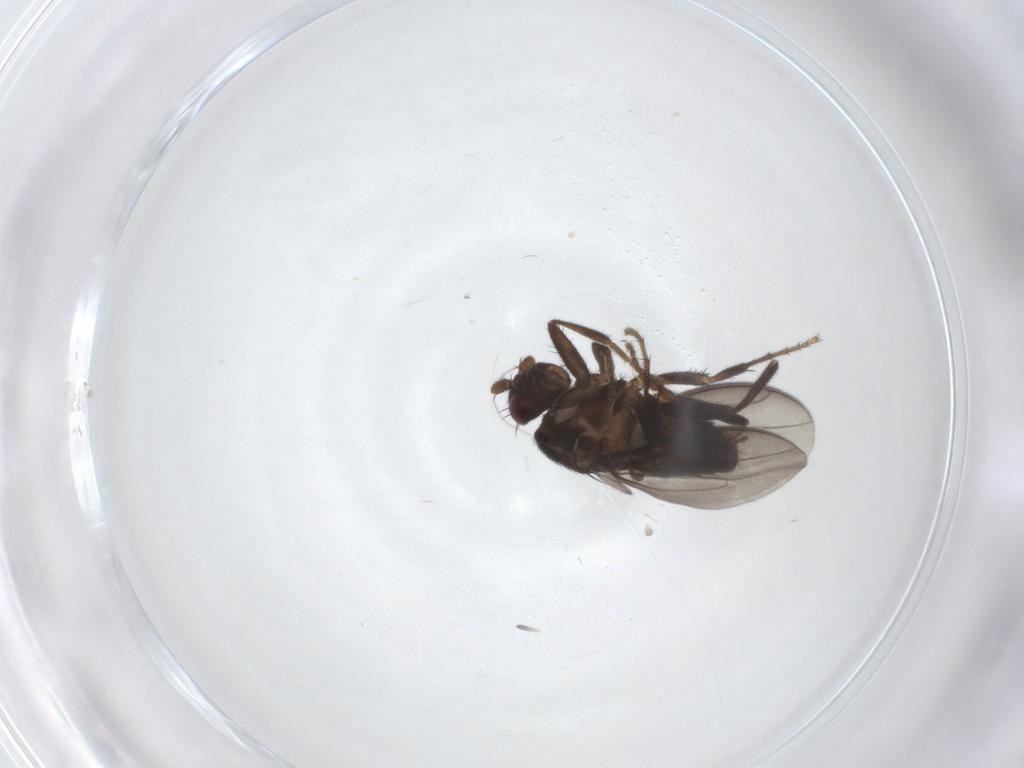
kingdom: Animalia
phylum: Arthropoda
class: Insecta
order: Diptera
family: Sphaeroceridae
